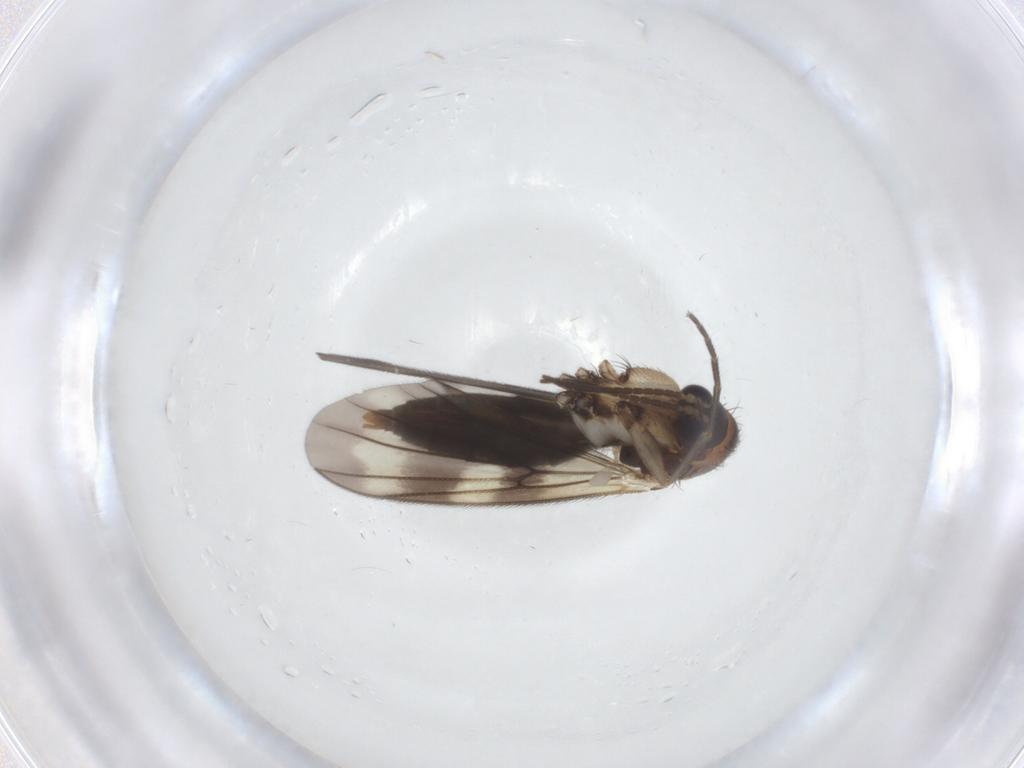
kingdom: Animalia
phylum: Arthropoda
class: Insecta
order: Diptera
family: Mycetophilidae
